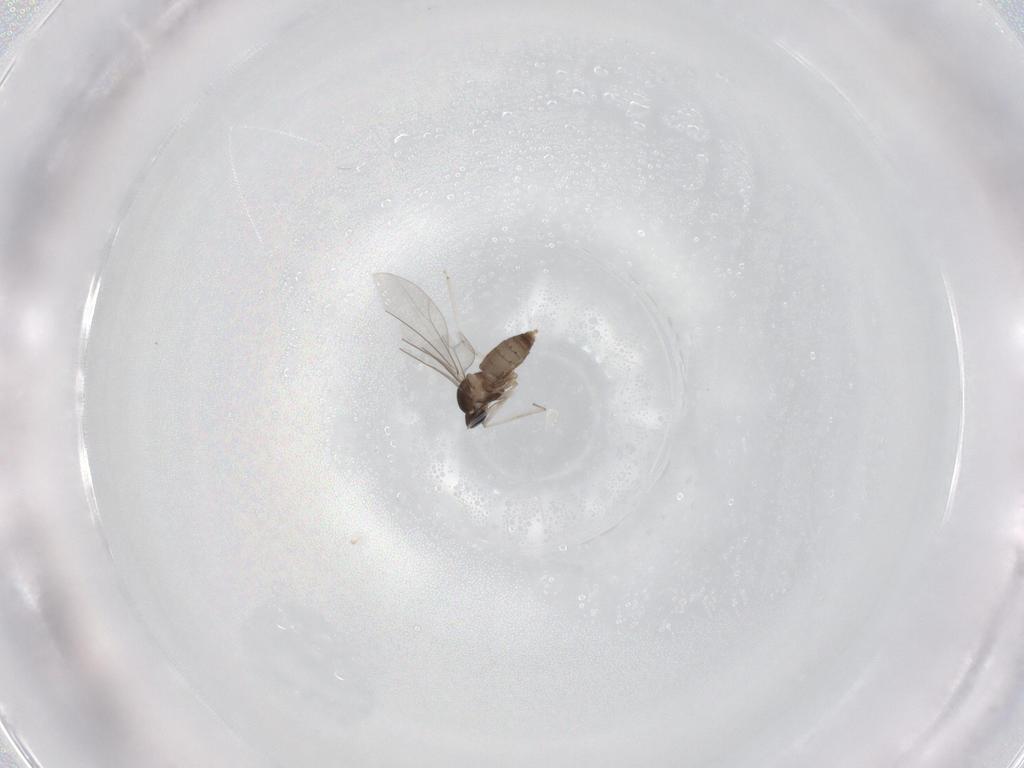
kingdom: Animalia
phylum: Arthropoda
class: Insecta
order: Diptera
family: Cecidomyiidae
